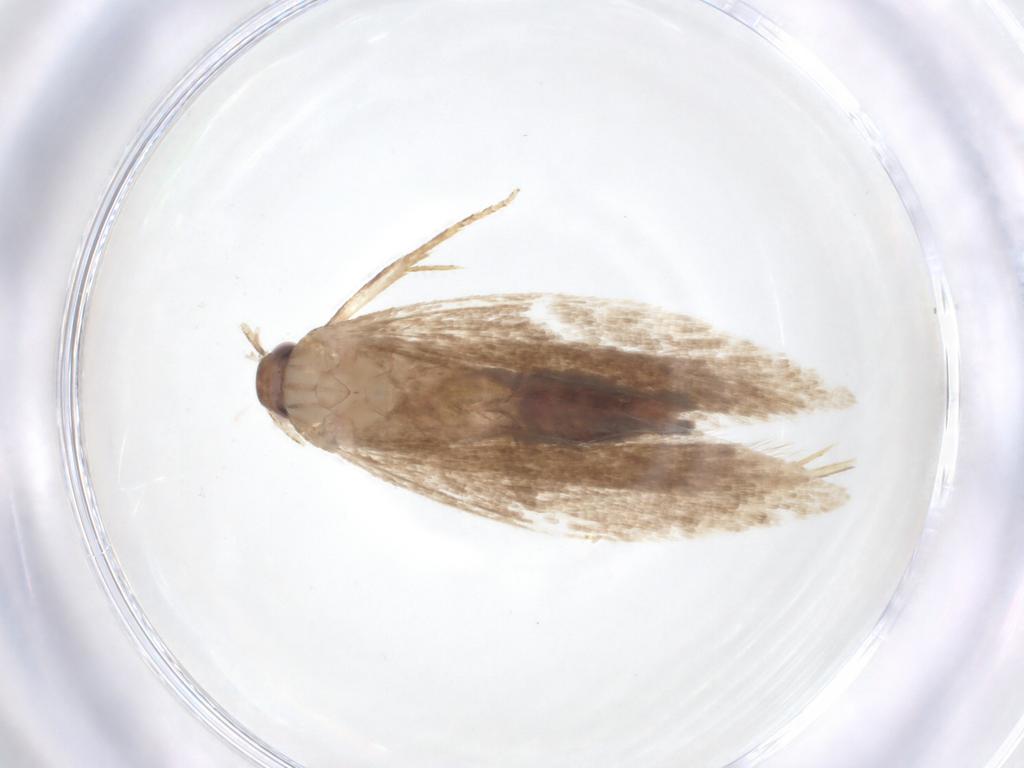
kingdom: Animalia
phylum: Arthropoda
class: Insecta
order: Lepidoptera
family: Gelechiidae
